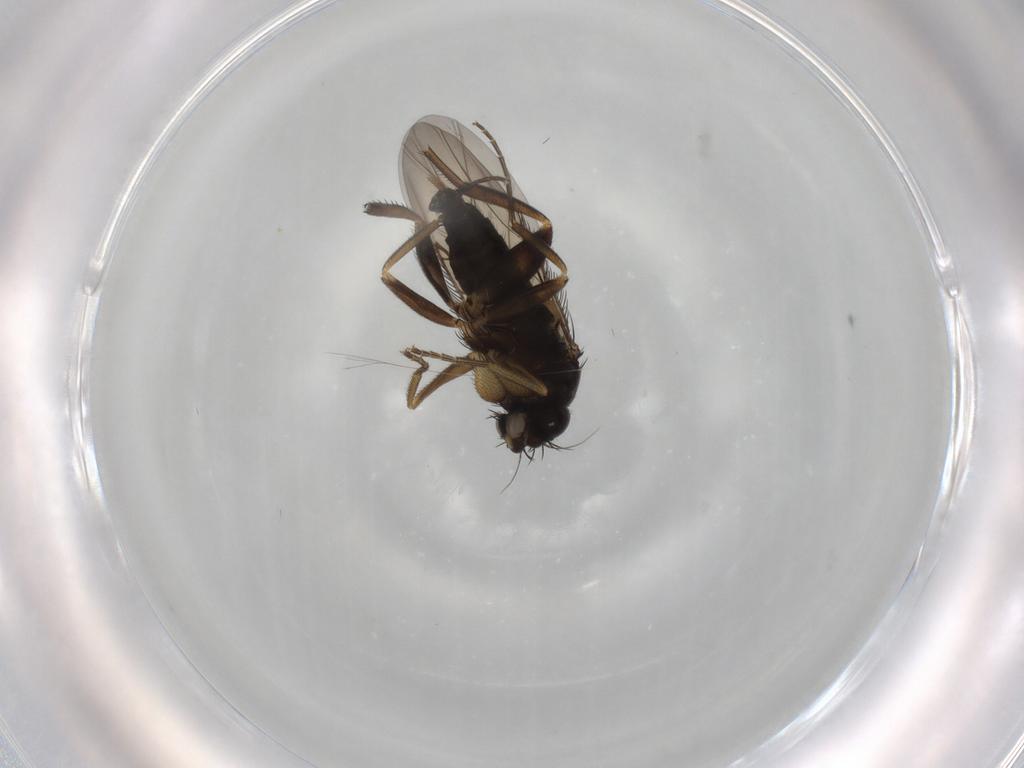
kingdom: Animalia
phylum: Arthropoda
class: Insecta
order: Diptera
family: Phoridae
